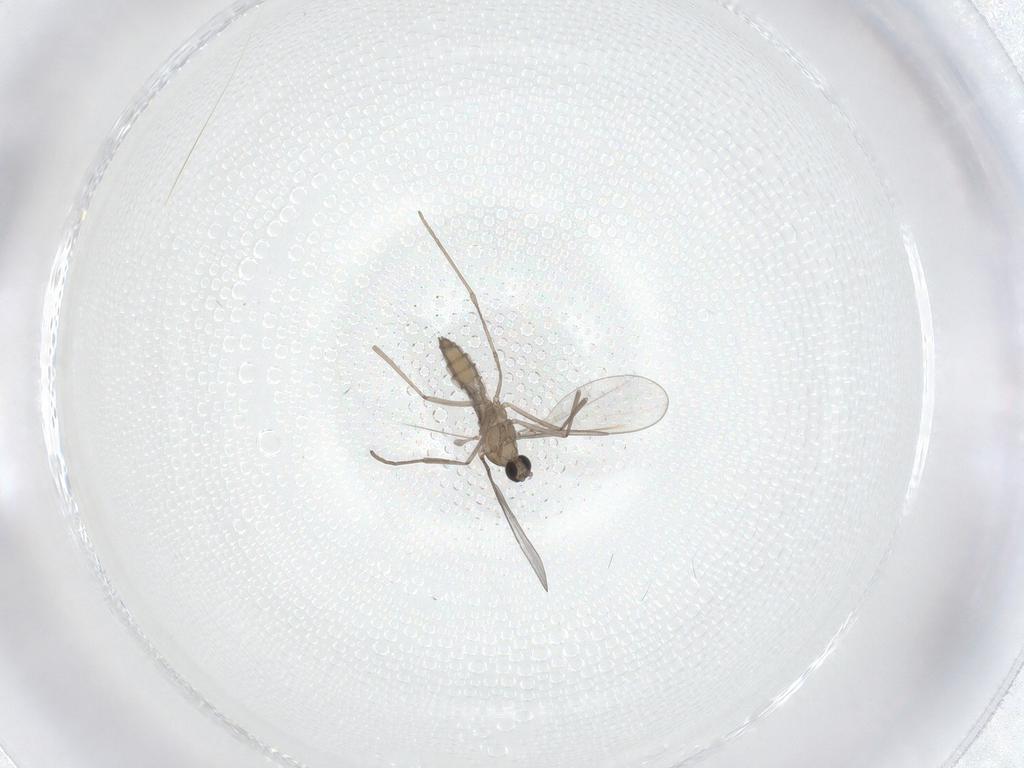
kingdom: Animalia
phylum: Arthropoda
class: Insecta
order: Diptera
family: Cecidomyiidae
